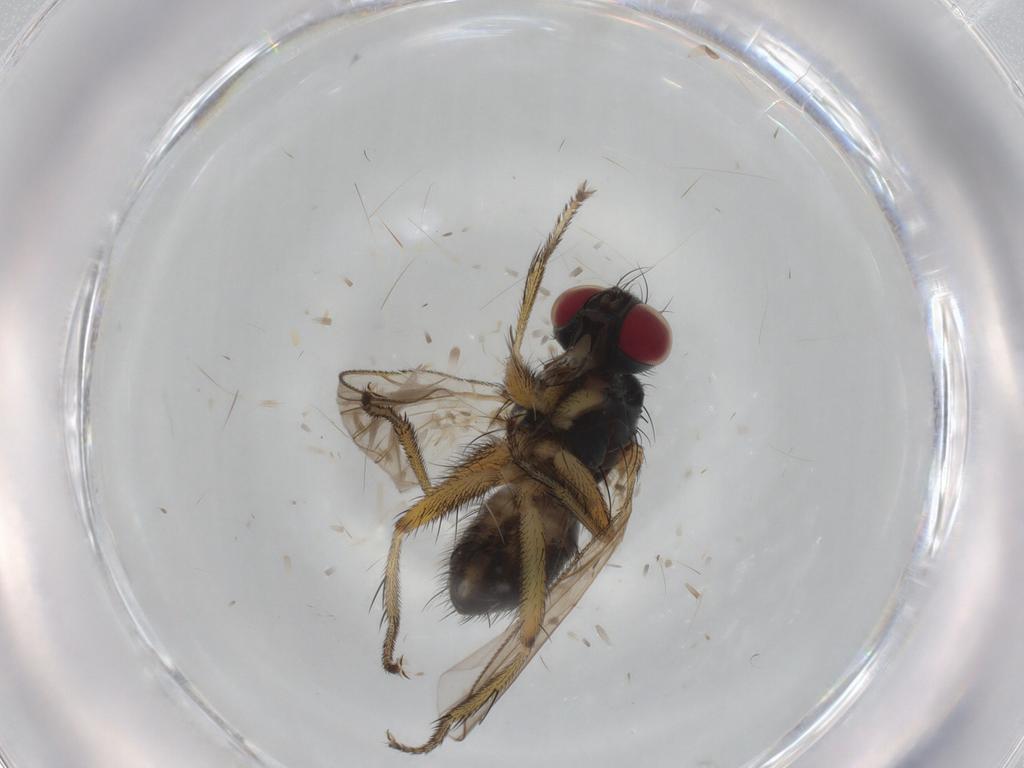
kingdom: Animalia
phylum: Arthropoda
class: Insecta
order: Diptera
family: Muscidae
